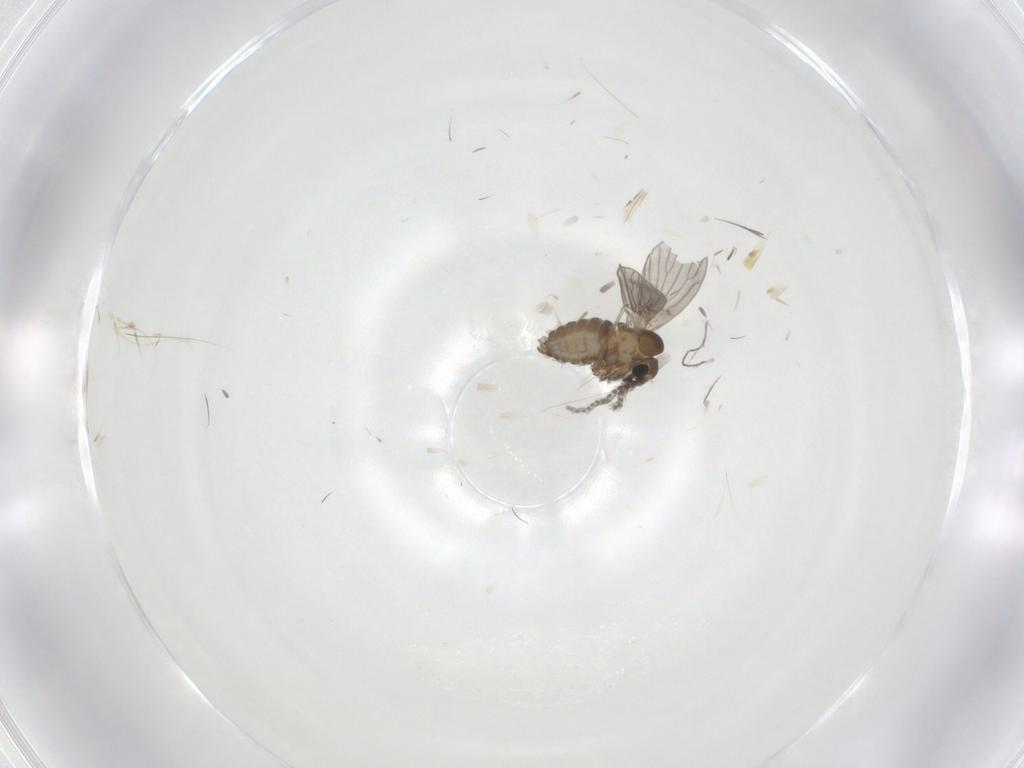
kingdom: Animalia
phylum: Arthropoda
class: Insecta
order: Diptera
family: Psychodidae
